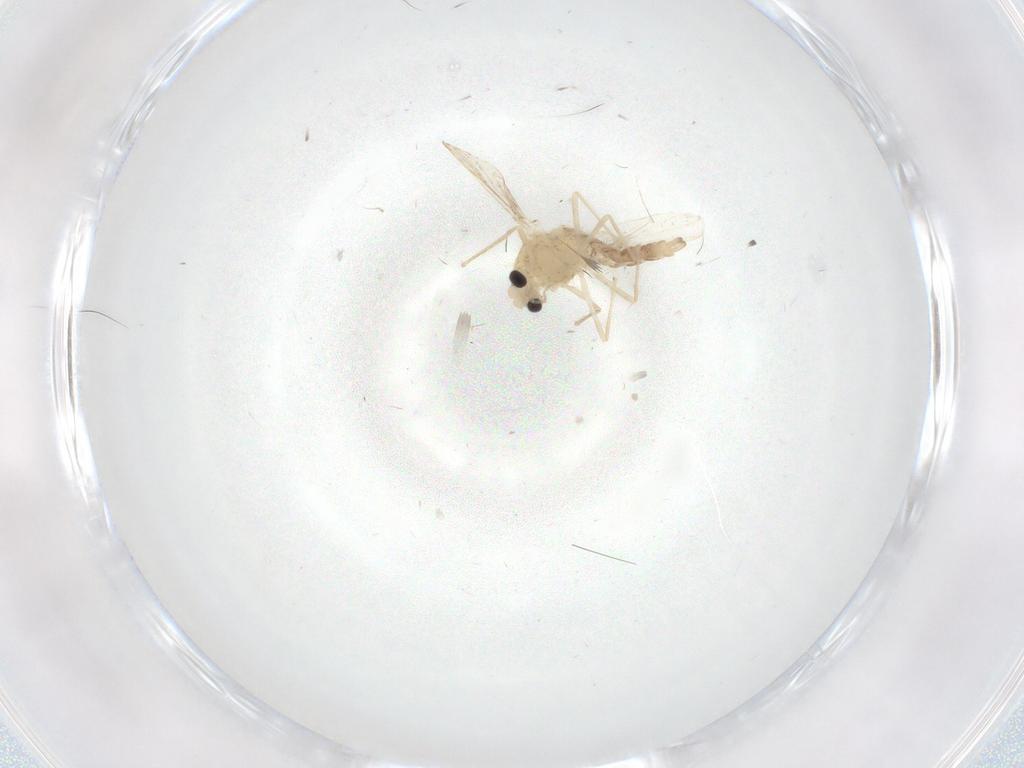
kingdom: Animalia
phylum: Arthropoda
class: Insecta
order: Diptera
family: Chironomidae
